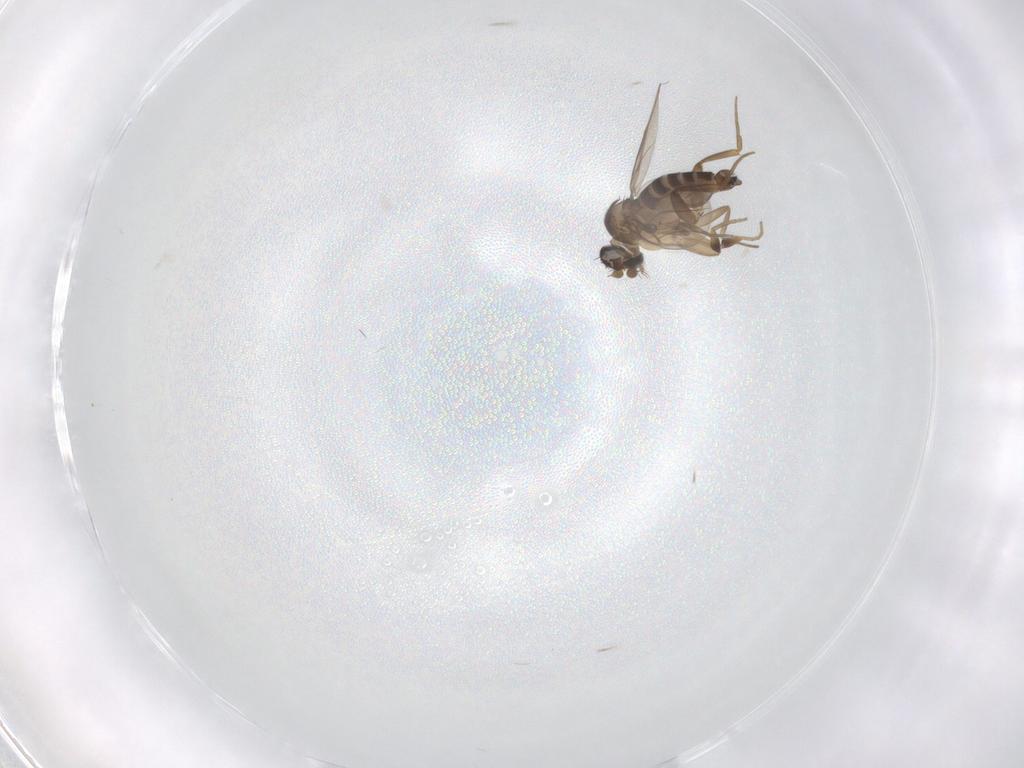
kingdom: Animalia
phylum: Arthropoda
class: Insecta
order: Diptera
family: Phoridae
